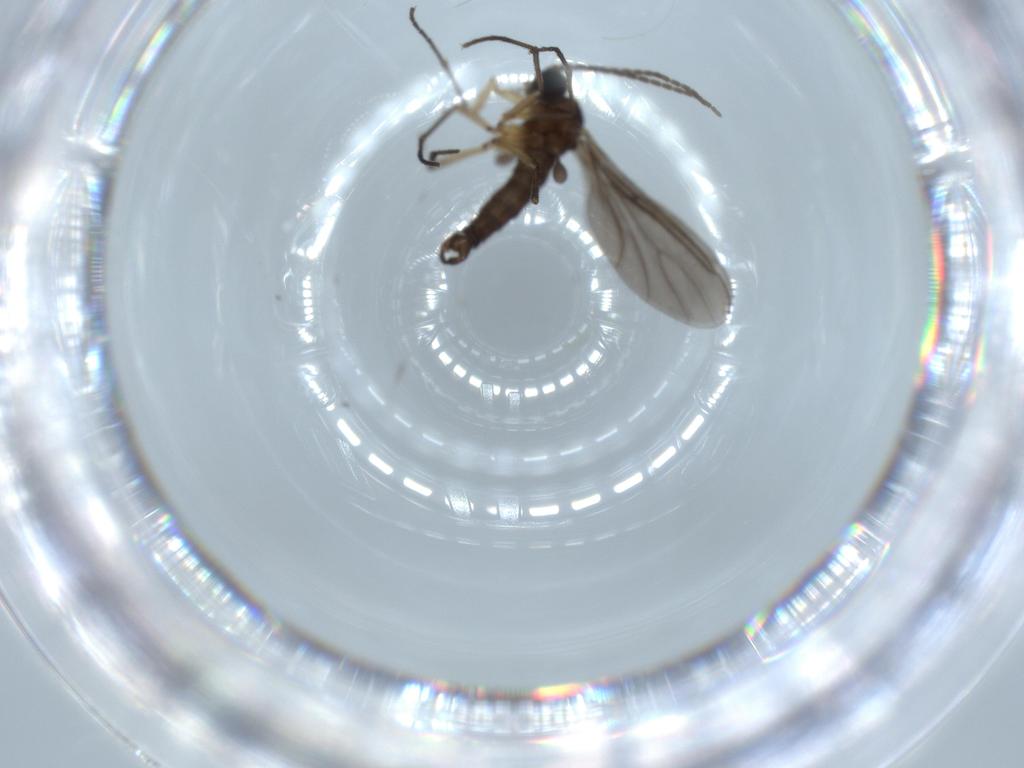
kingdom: Animalia
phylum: Arthropoda
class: Insecta
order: Diptera
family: Sciaridae
